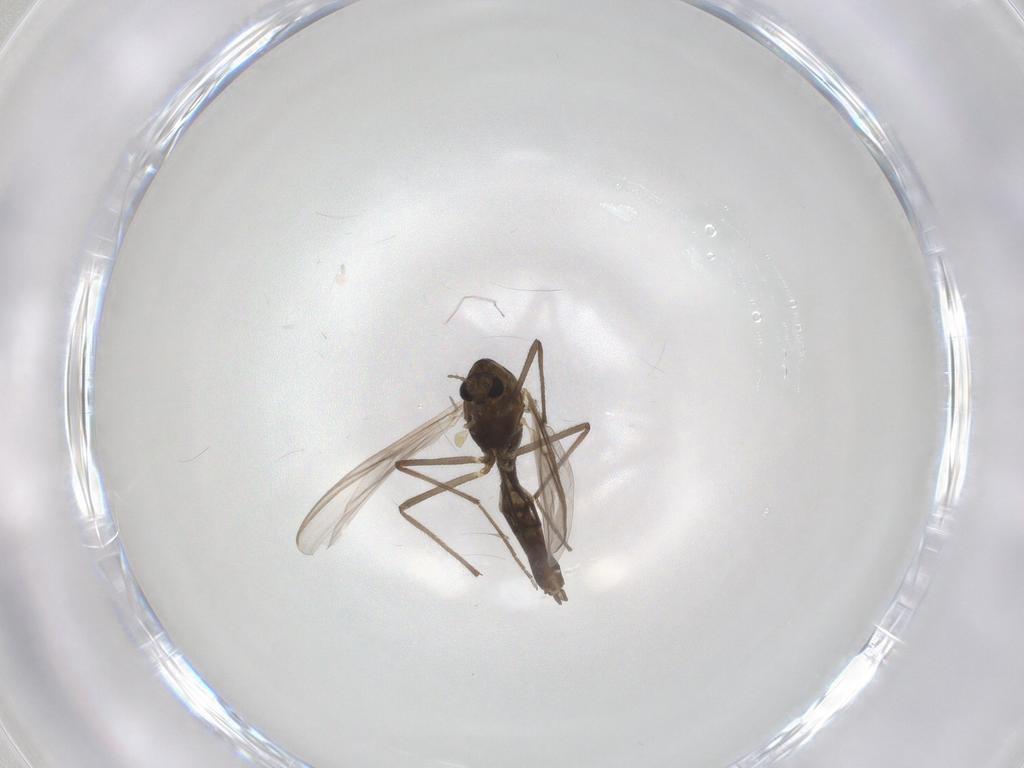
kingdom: Animalia
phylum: Arthropoda
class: Insecta
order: Diptera
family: Chironomidae
